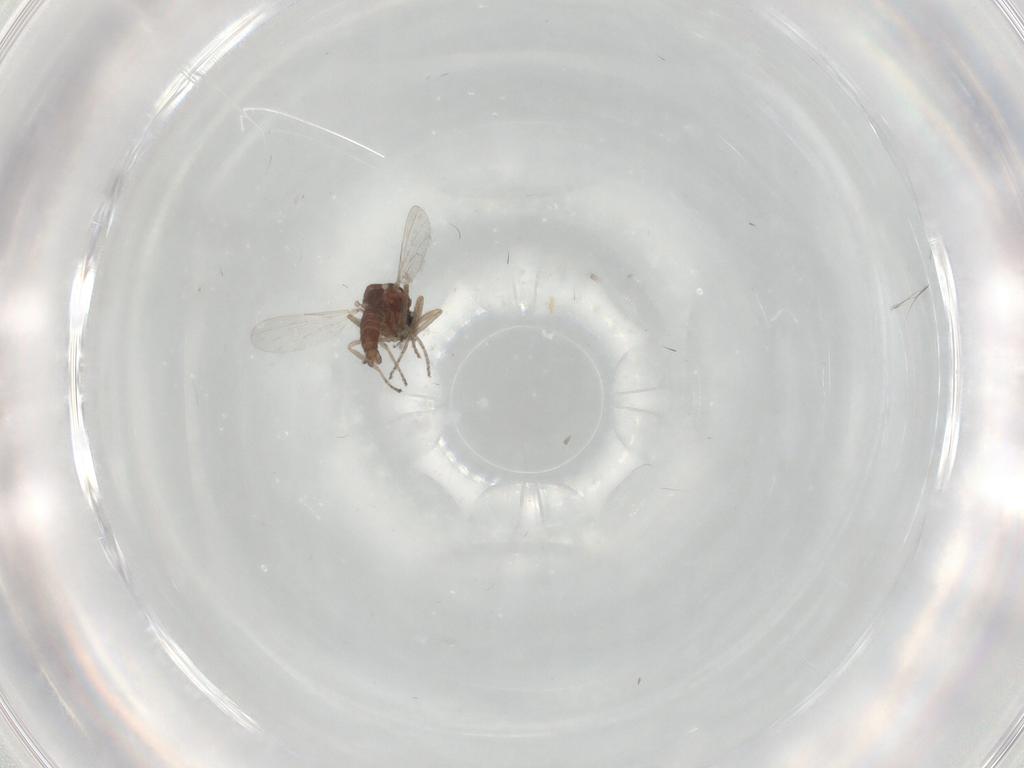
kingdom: Animalia
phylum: Arthropoda
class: Insecta
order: Diptera
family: Ceratopogonidae
